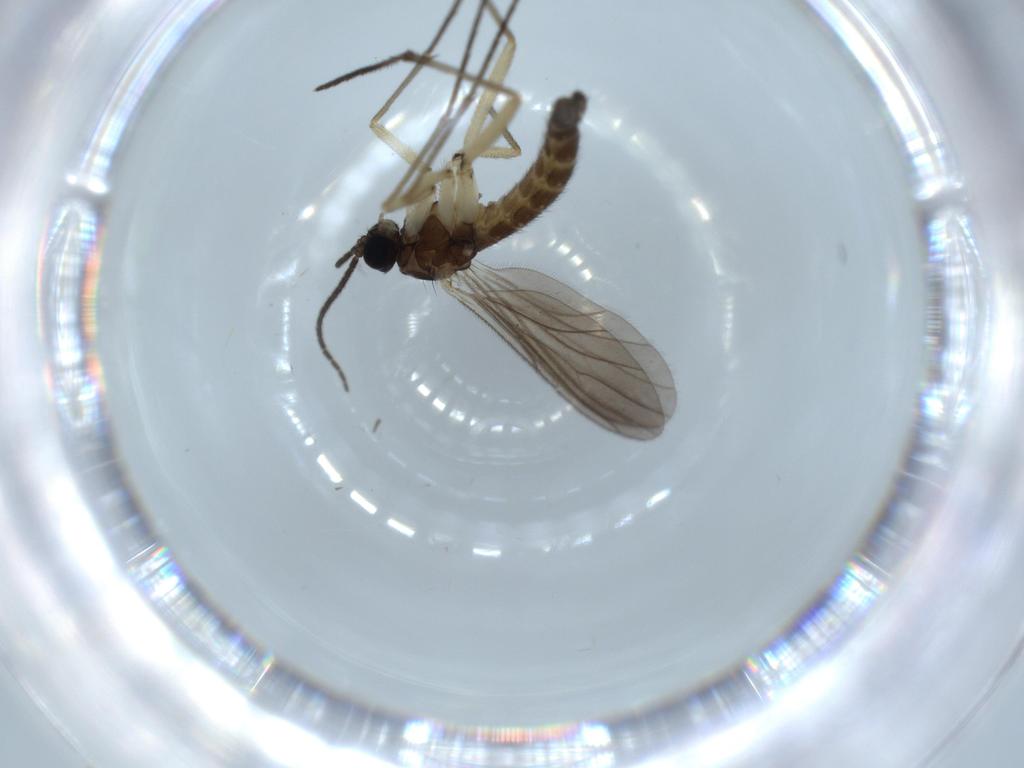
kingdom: Animalia
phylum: Arthropoda
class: Insecta
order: Diptera
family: Sciaridae
